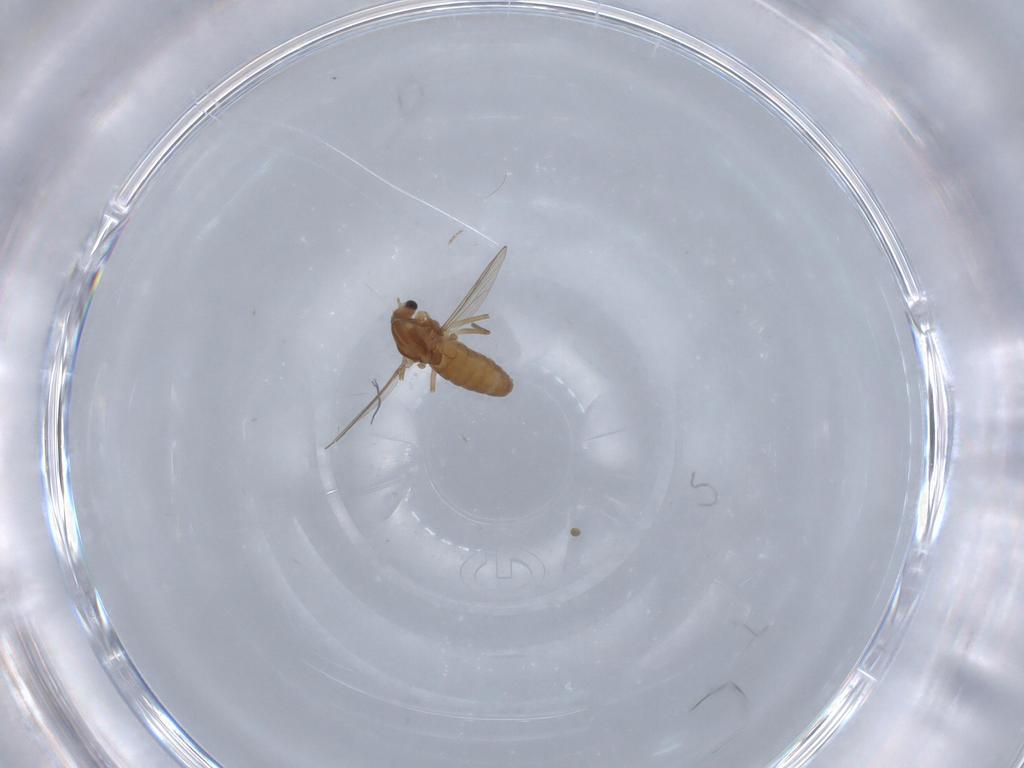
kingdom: Animalia
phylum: Arthropoda
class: Insecta
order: Diptera
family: Chironomidae
